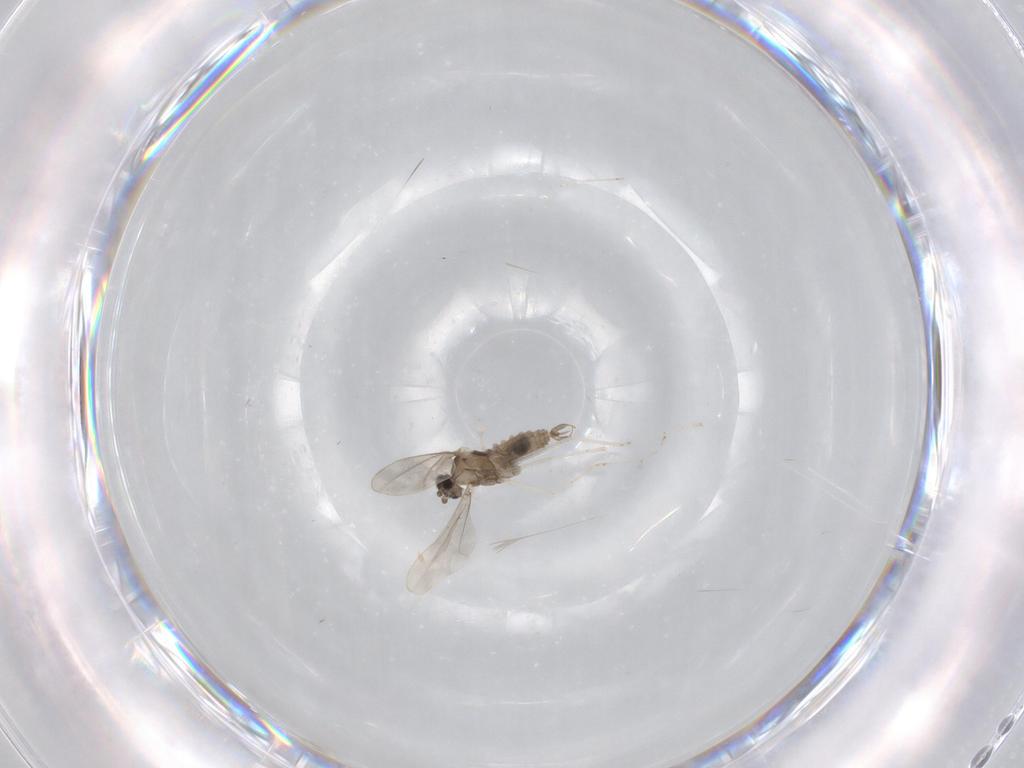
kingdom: Animalia
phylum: Arthropoda
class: Insecta
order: Diptera
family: Cecidomyiidae
